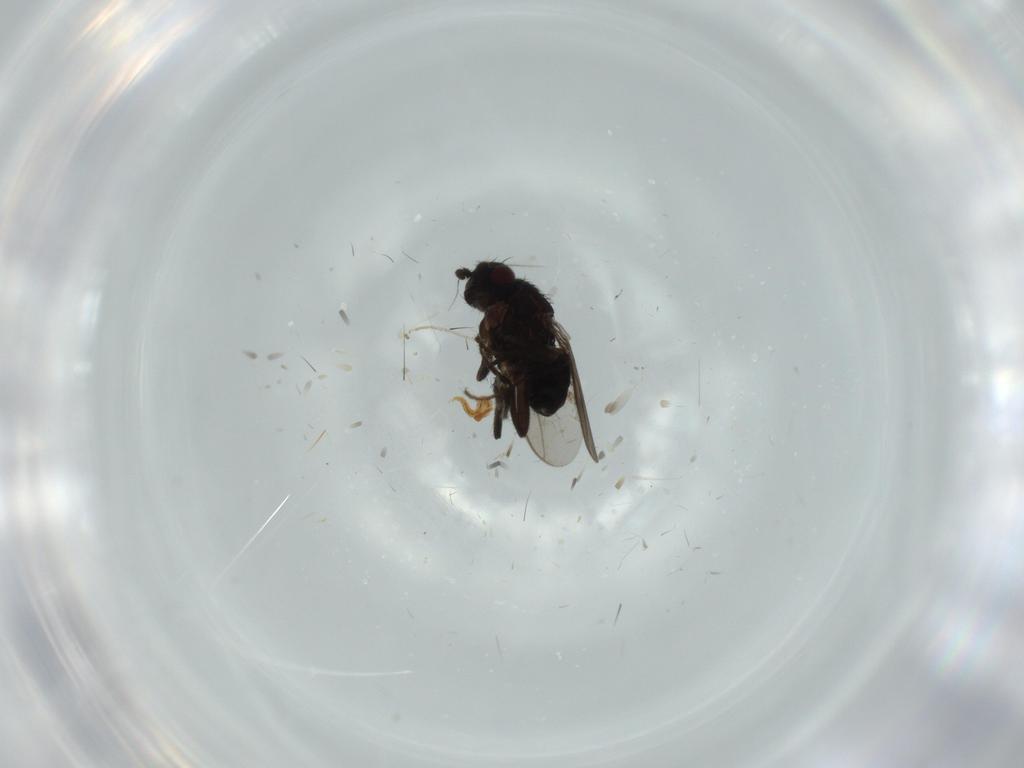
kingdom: Animalia
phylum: Arthropoda
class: Insecta
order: Diptera
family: Sphaeroceridae
